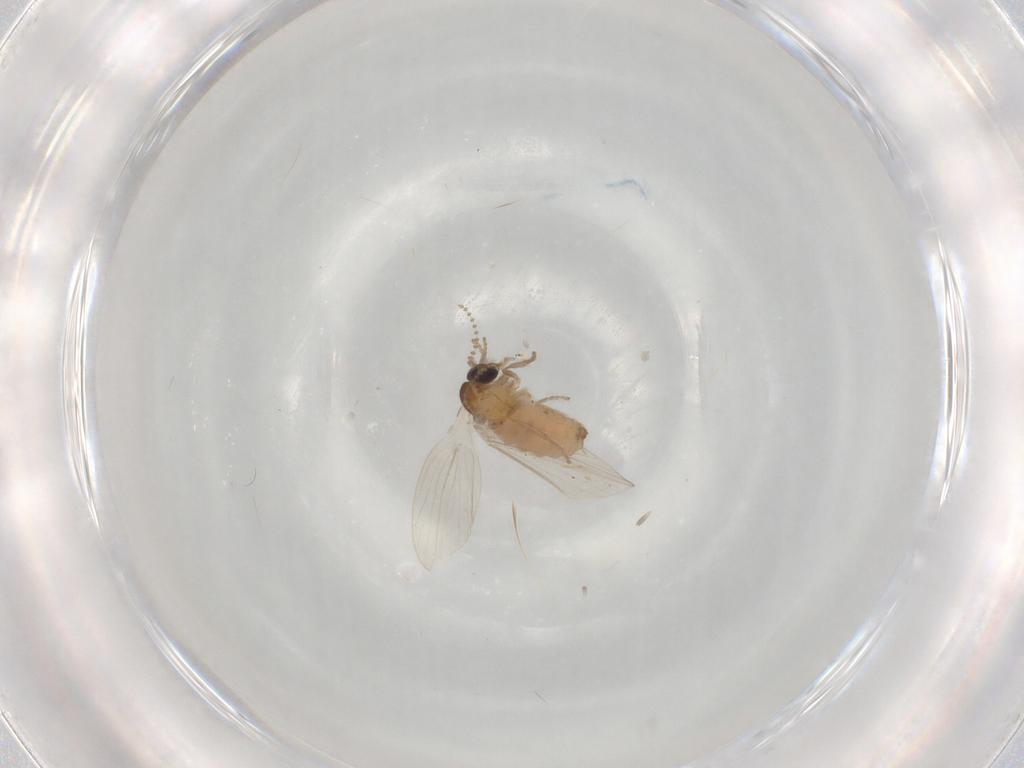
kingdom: Animalia
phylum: Arthropoda
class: Insecta
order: Diptera
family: Psychodidae
